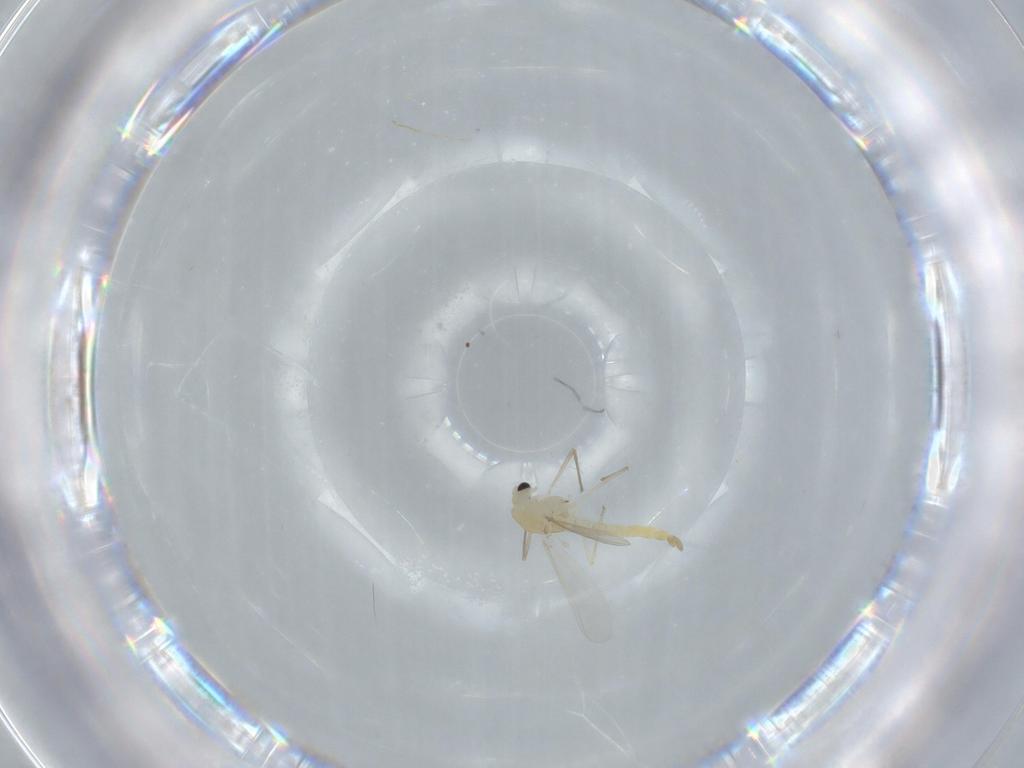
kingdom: Animalia
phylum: Arthropoda
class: Insecta
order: Diptera
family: Chironomidae
